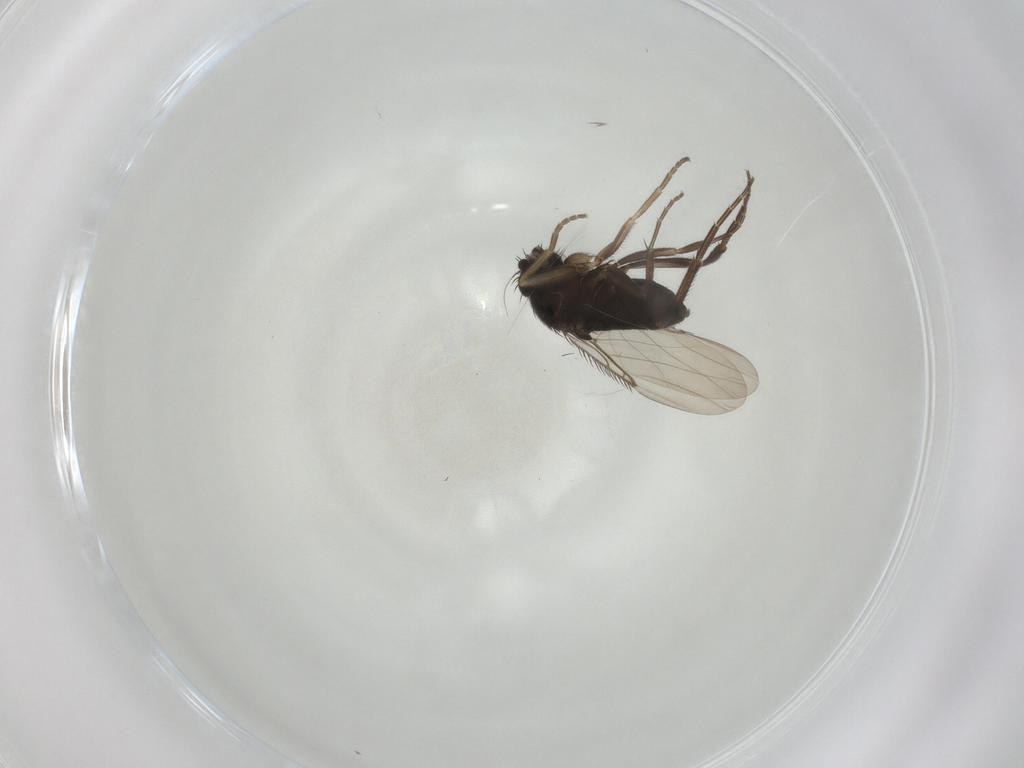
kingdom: Animalia
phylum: Arthropoda
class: Insecta
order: Diptera
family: Phoridae
